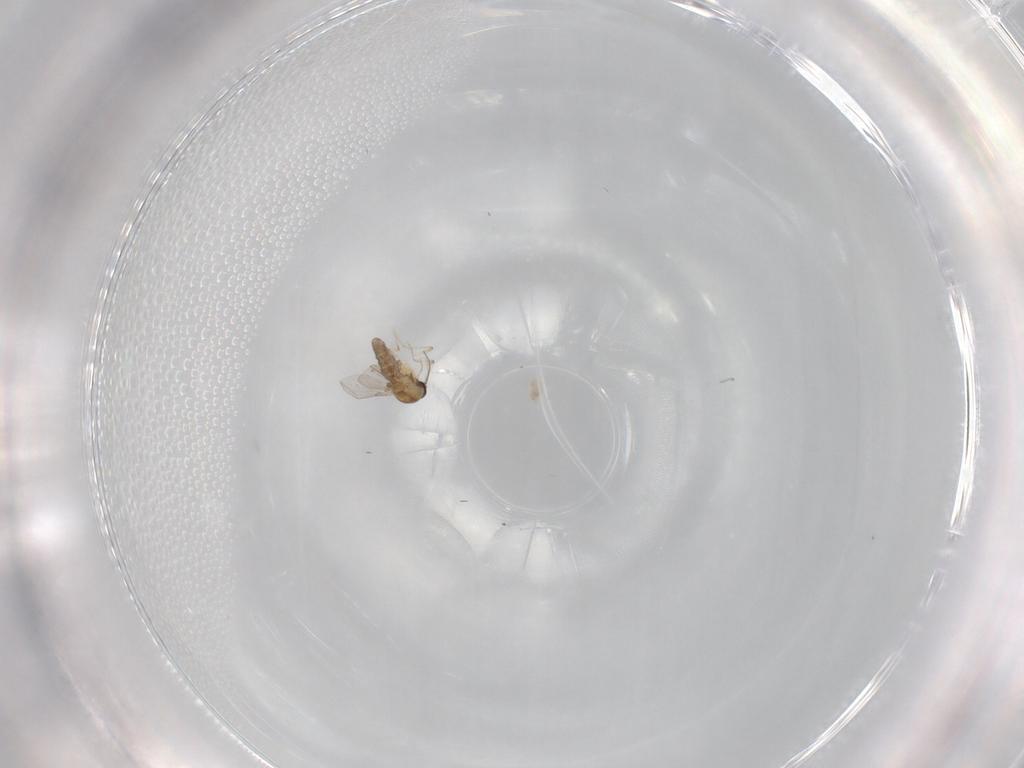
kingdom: Animalia
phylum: Arthropoda
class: Insecta
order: Diptera
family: Ceratopogonidae
